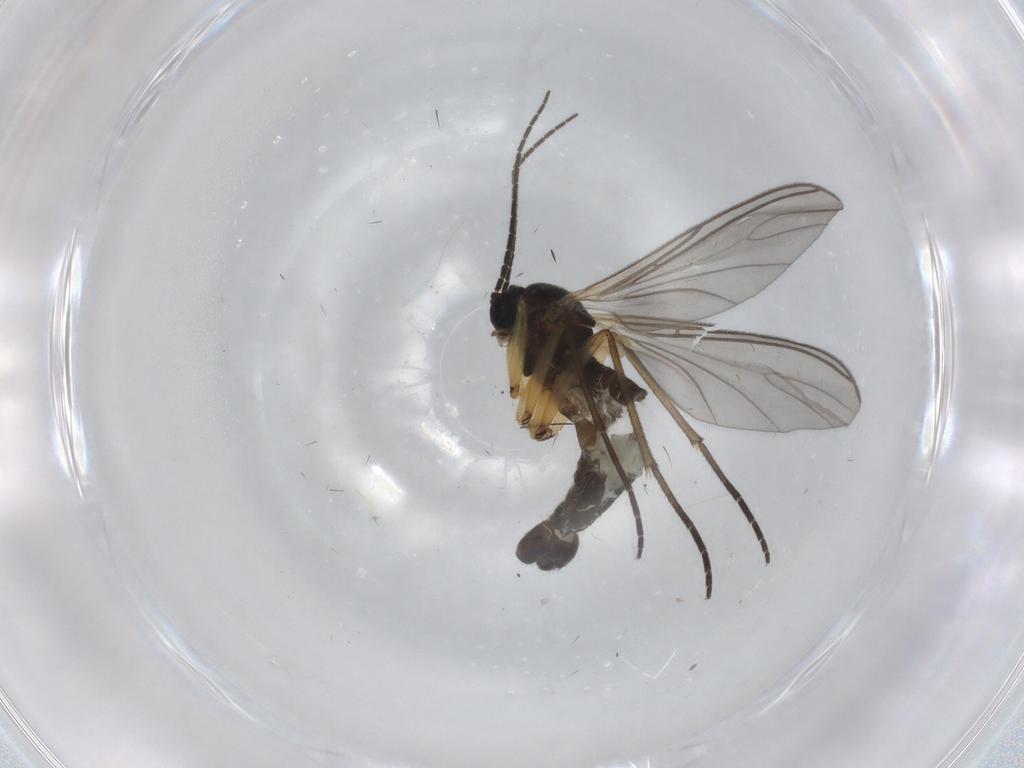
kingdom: Animalia
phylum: Arthropoda
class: Insecta
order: Diptera
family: Sciaridae
